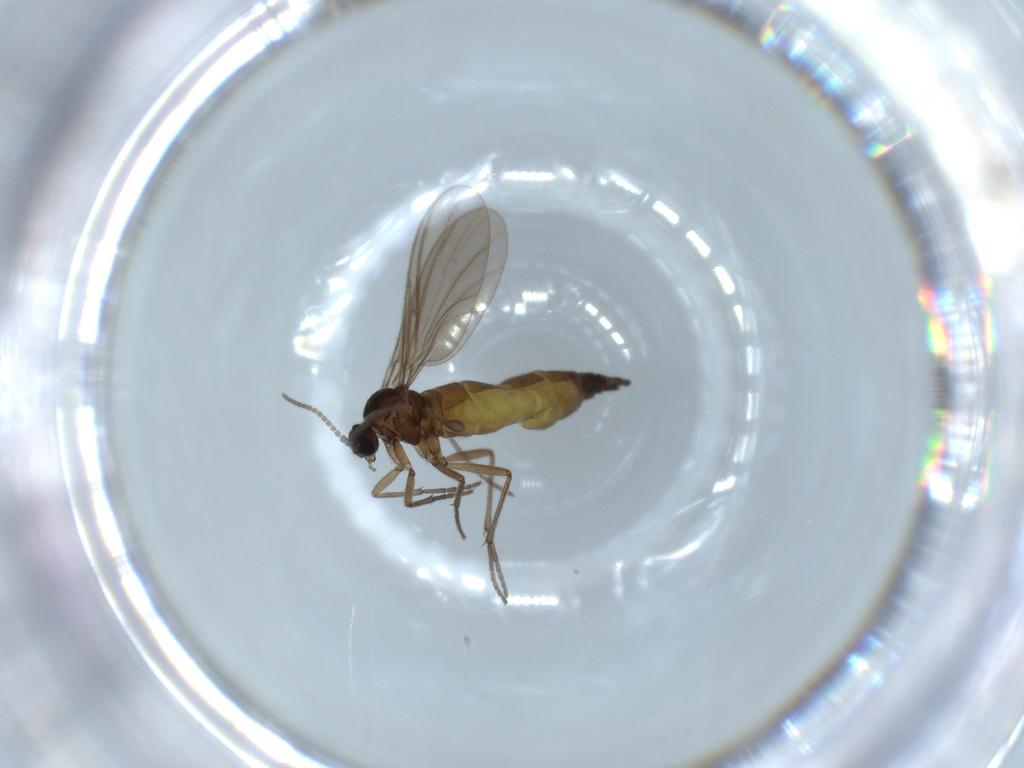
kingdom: Animalia
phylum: Arthropoda
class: Insecta
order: Diptera
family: Sciaridae
